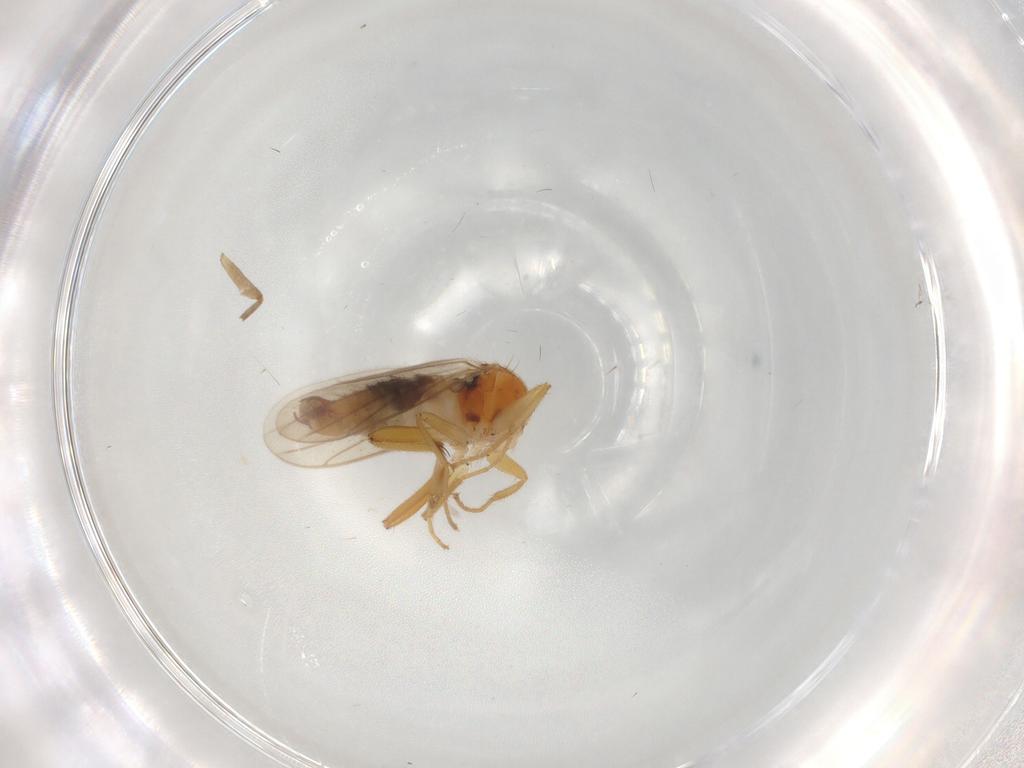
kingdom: Animalia
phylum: Arthropoda
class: Insecta
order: Diptera
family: Hybotidae
